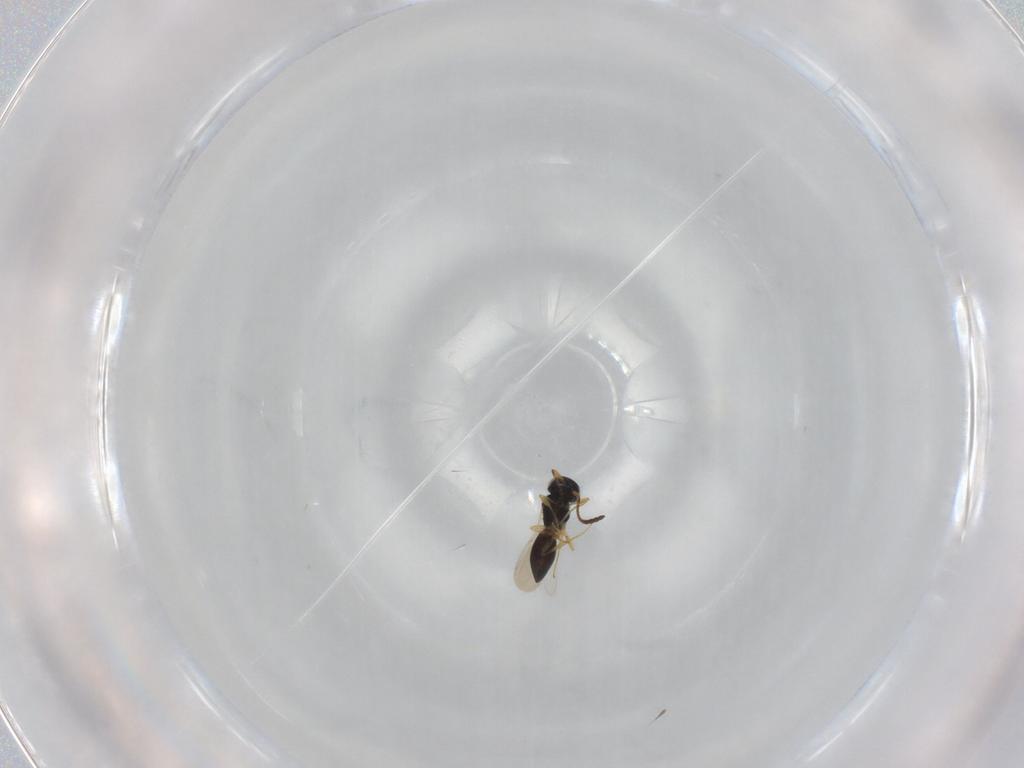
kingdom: Animalia
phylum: Arthropoda
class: Insecta
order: Hymenoptera
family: Scelionidae
